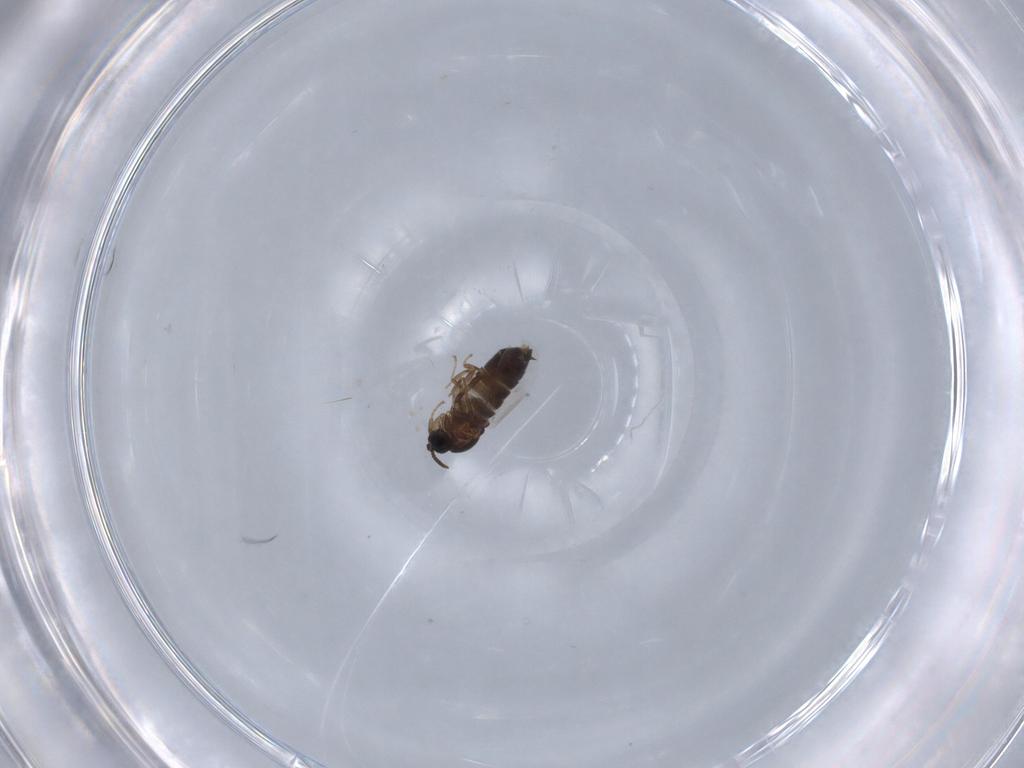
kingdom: Animalia
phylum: Arthropoda
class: Insecta
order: Diptera
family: Scatopsidae
